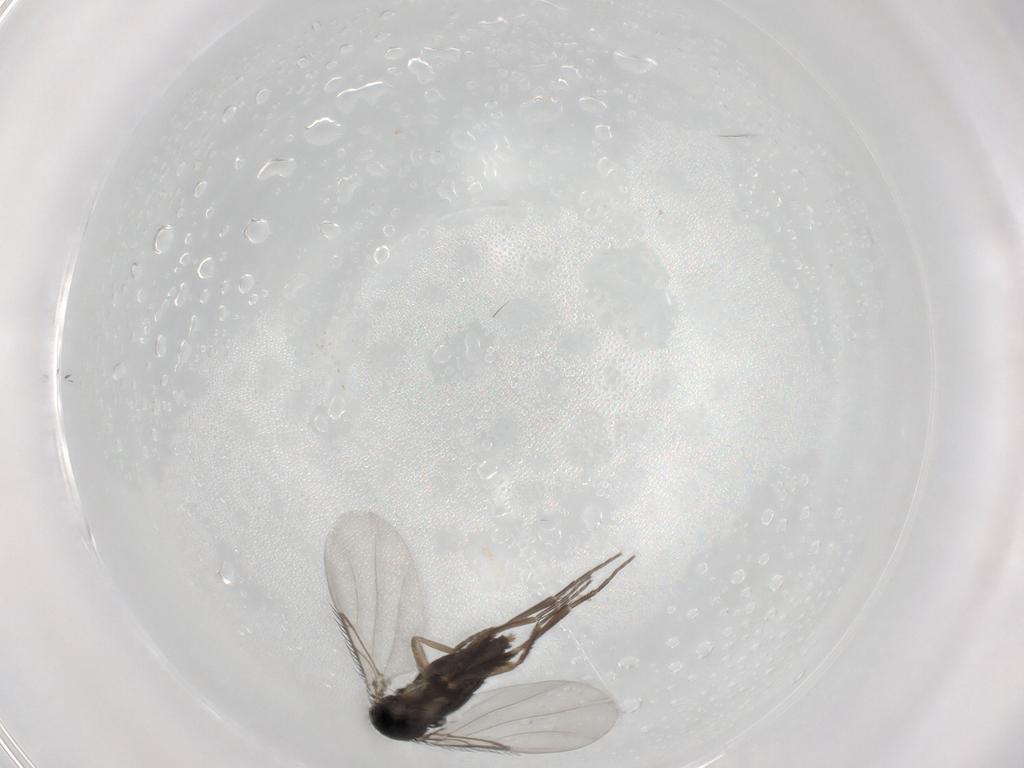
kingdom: Animalia
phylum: Arthropoda
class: Insecta
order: Diptera
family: Phoridae
